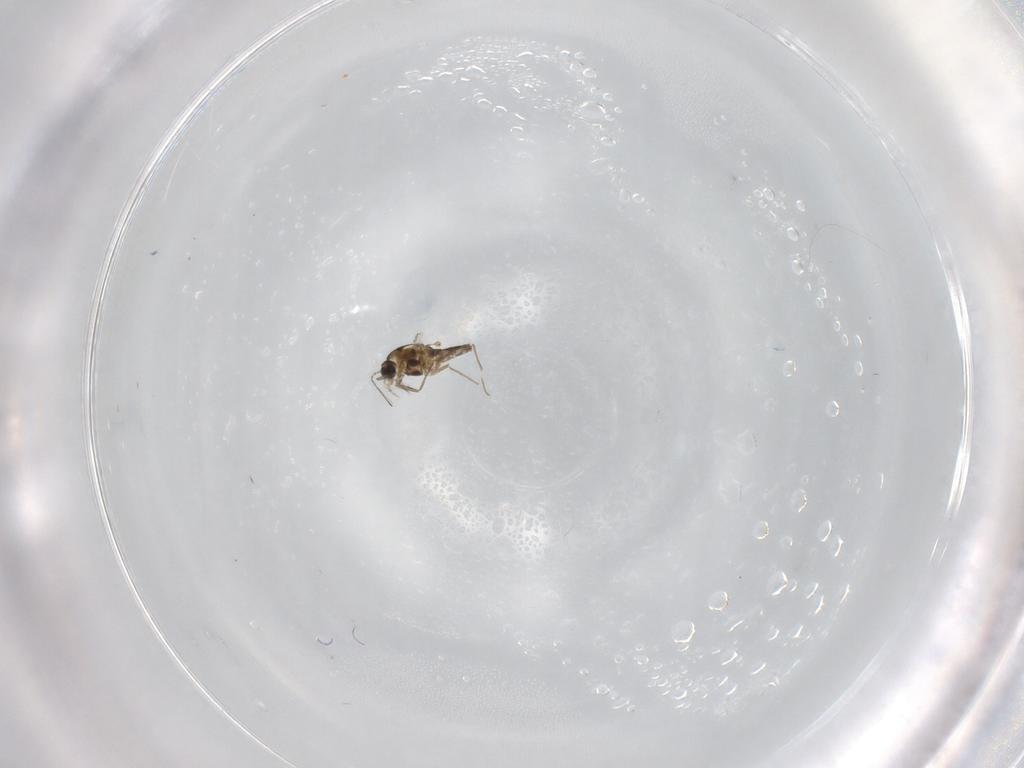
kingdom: Animalia
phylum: Arthropoda
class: Insecta
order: Diptera
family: Chironomidae
